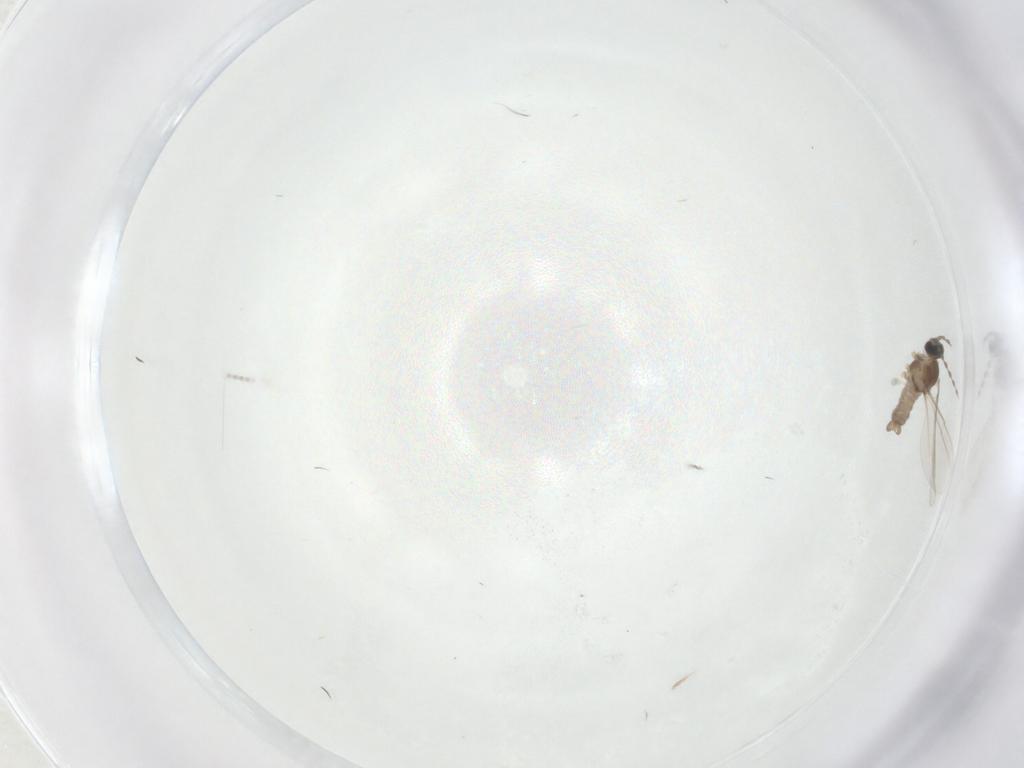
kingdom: Animalia
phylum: Arthropoda
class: Insecta
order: Diptera
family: Cecidomyiidae
